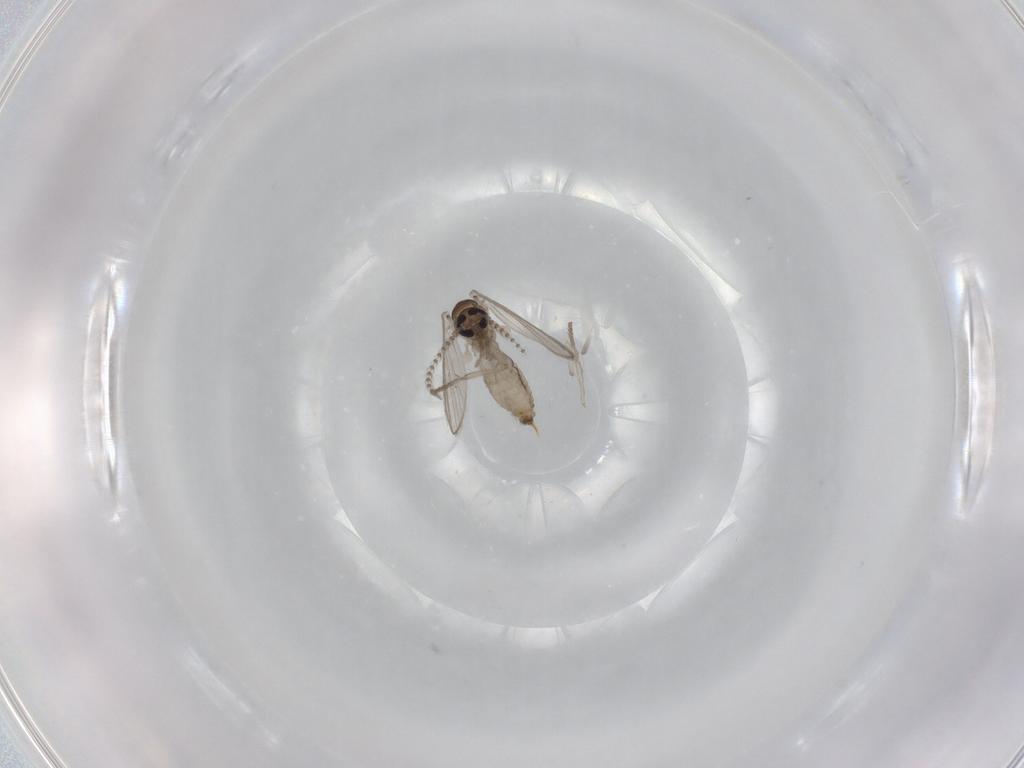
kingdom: Animalia
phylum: Arthropoda
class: Insecta
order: Diptera
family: Psychodidae
